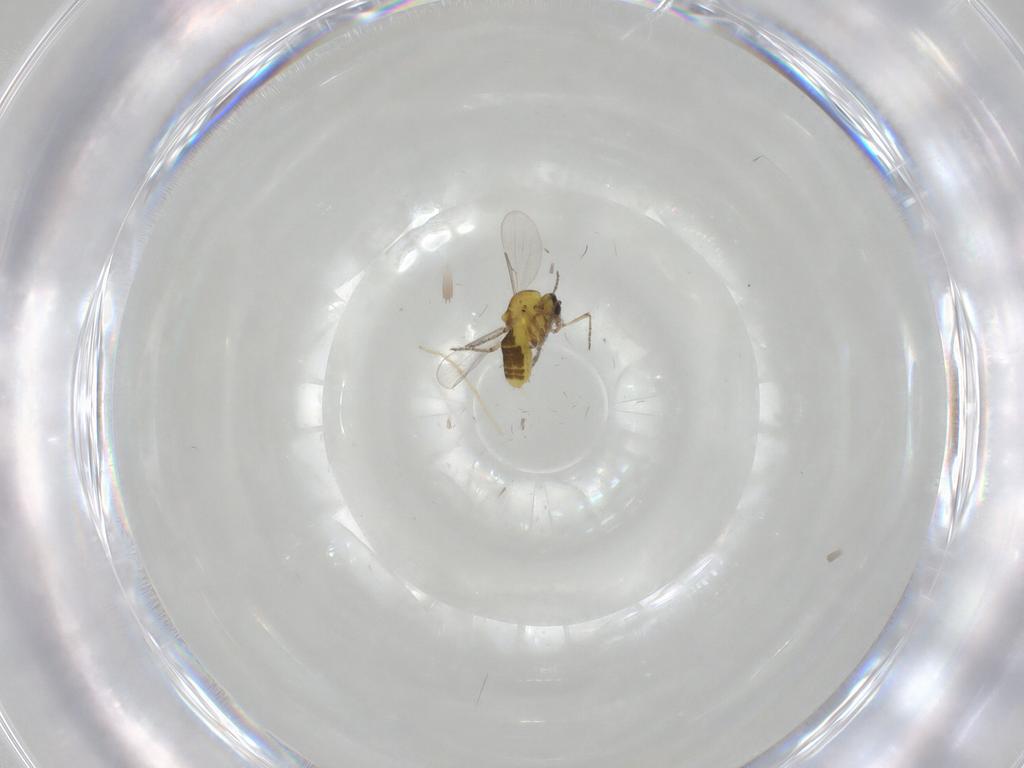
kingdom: Animalia
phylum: Arthropoda
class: Insecta
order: Diptera
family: Chironomidae
